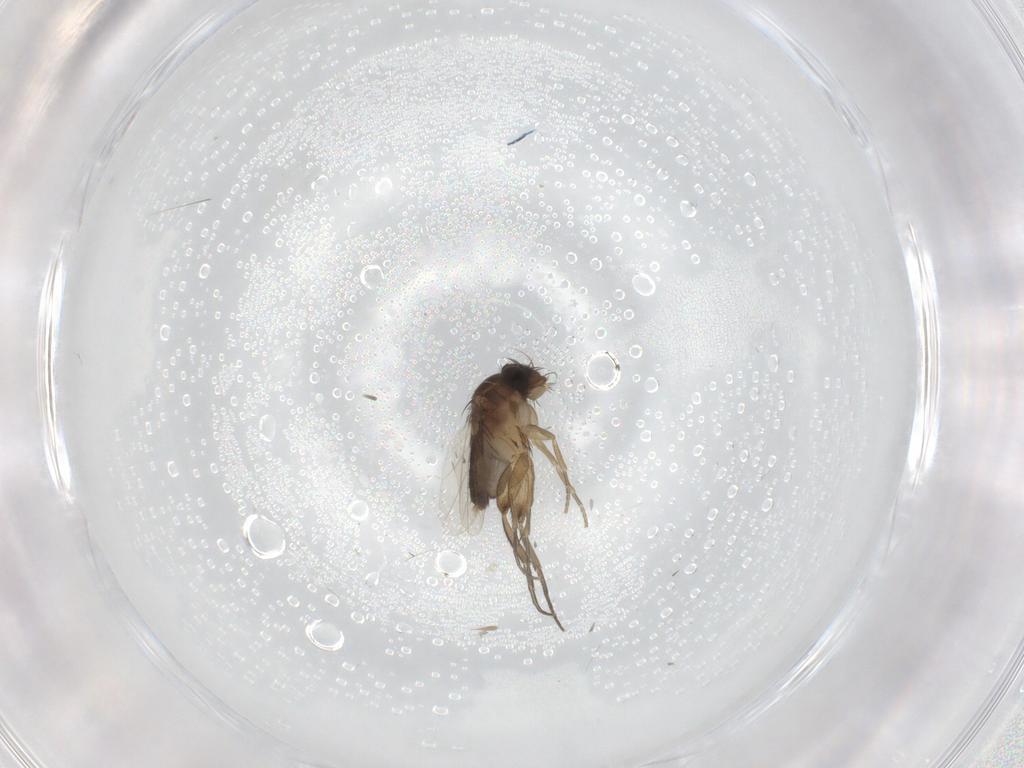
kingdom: Animalia
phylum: Arthropoda
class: Insecta
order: Diptera
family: Phoridae
